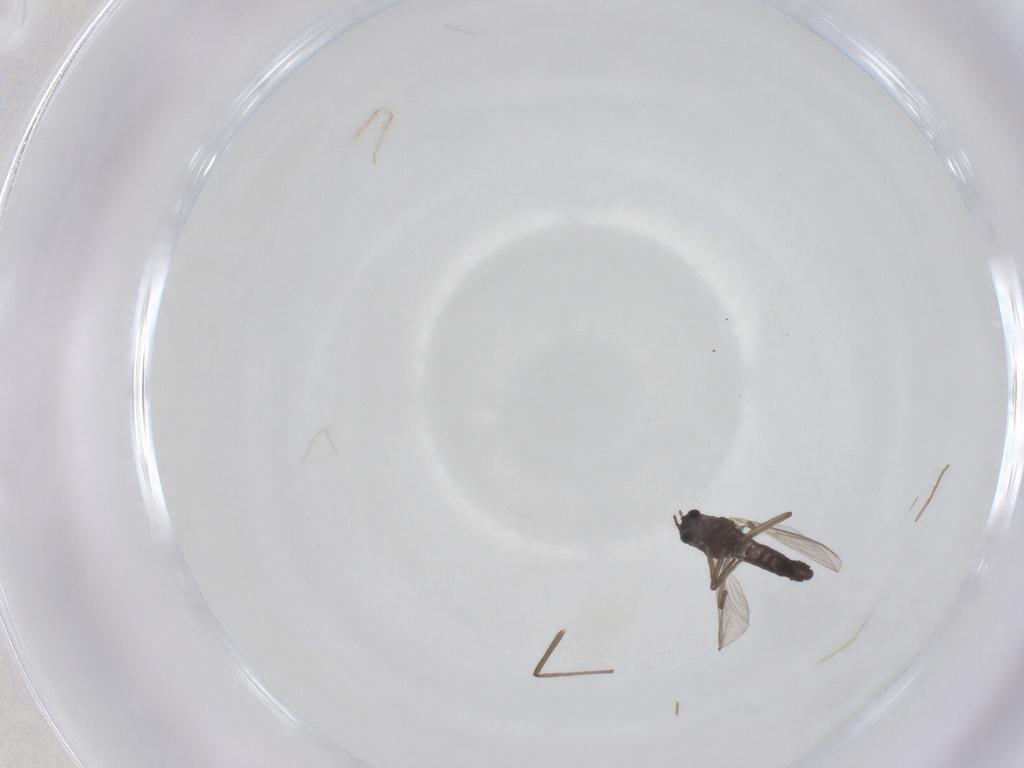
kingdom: Animalia
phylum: Arthropoda
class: Insecta
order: Diptera
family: Chironomidae
